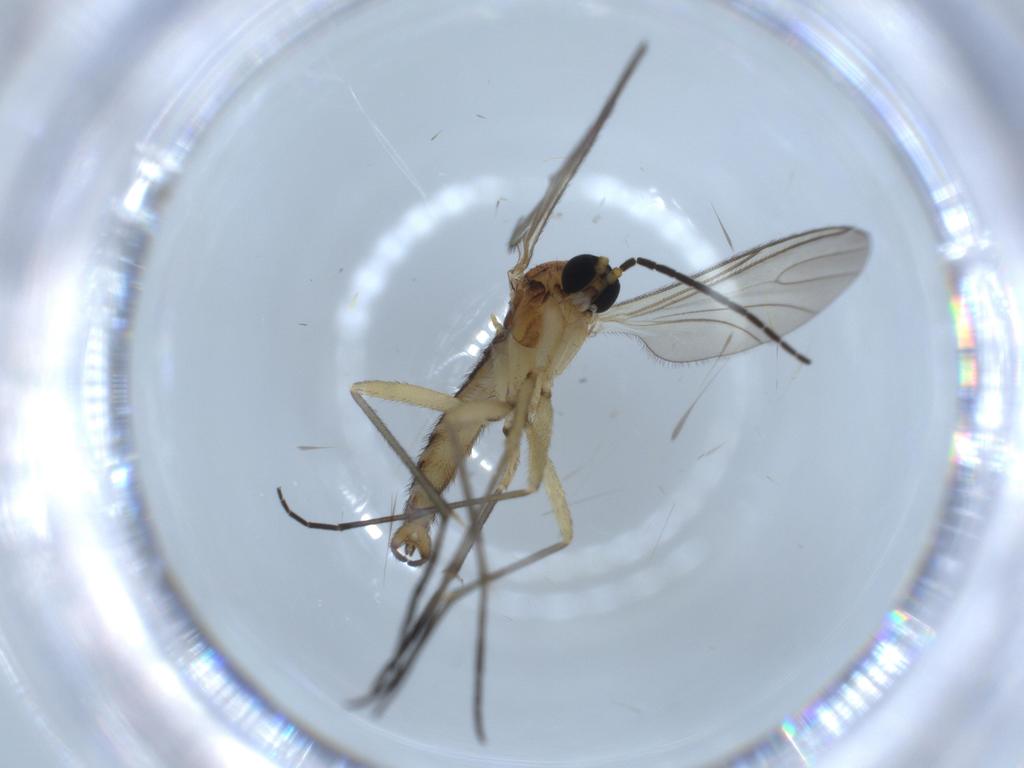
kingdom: Animalia
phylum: Arthropoda
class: Insecta
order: Diptera
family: Sciaridae
